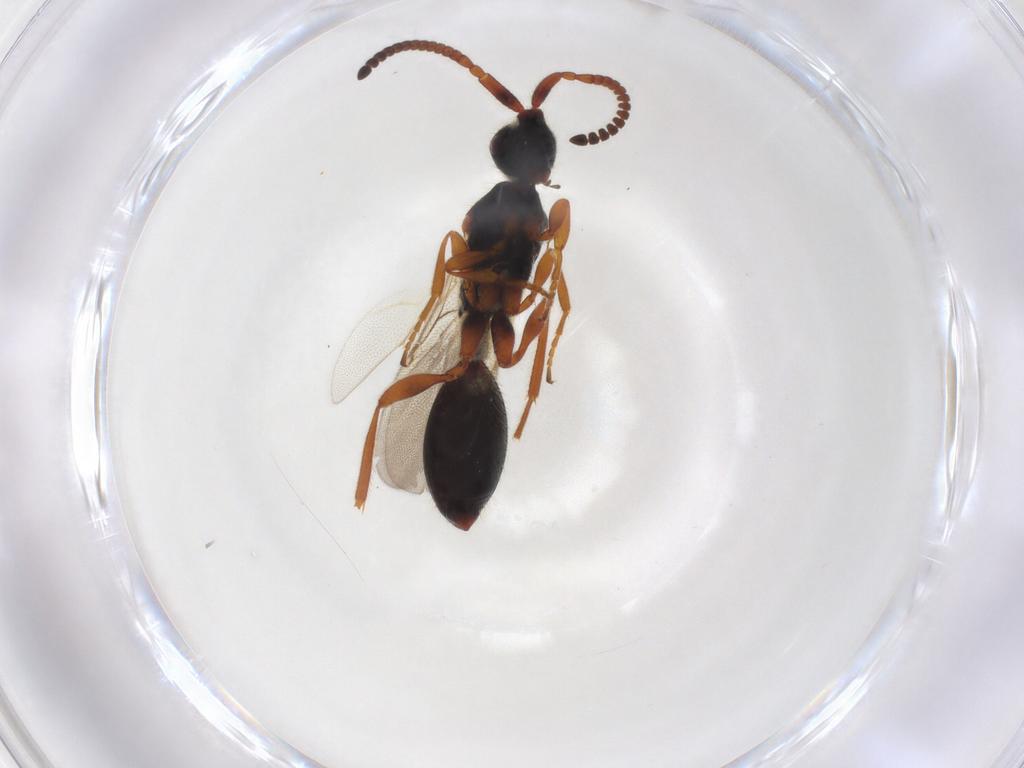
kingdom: Animalia
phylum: Arthropoda
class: Insecta
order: Hymenoptera
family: Diapriidae
